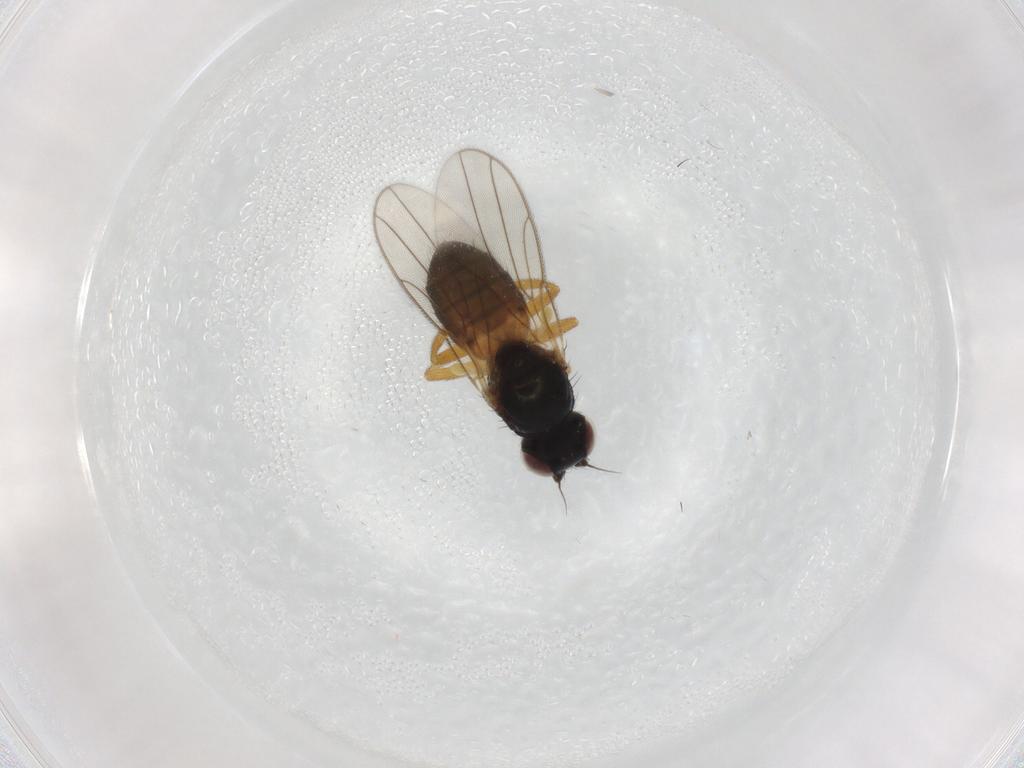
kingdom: Animalia
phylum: Arthropoda
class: Insecta
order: Diptera
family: Chloropidae
